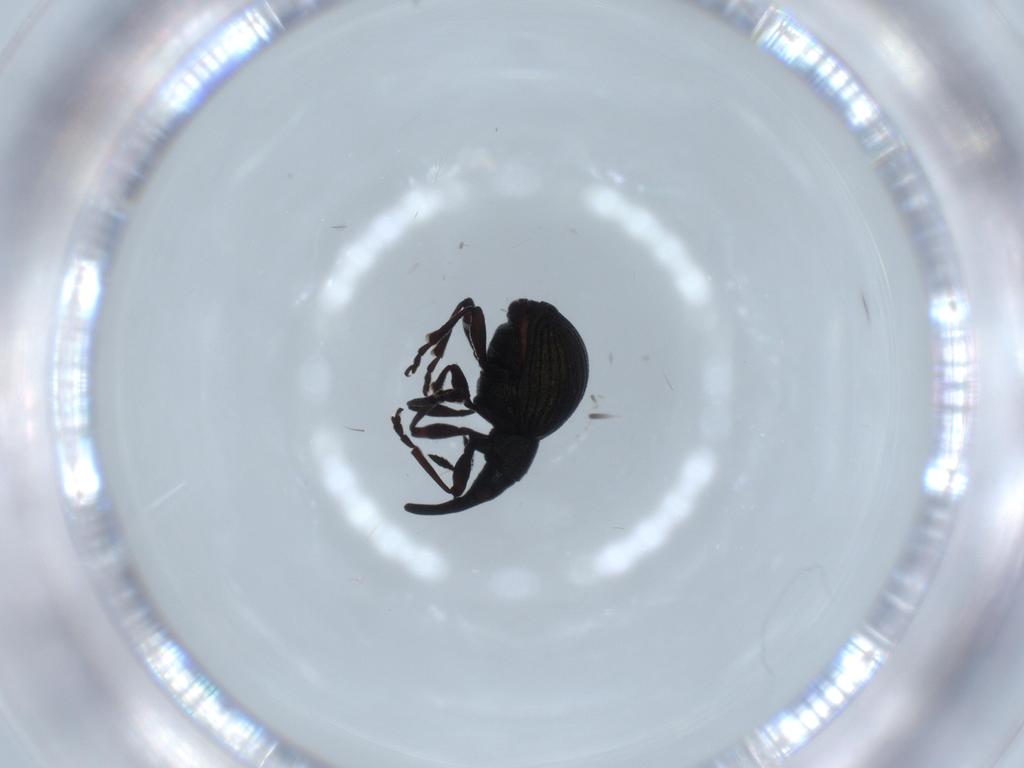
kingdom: Animalia
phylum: Arthropoda
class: Insecta
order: Coleoptera
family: Brentidae
